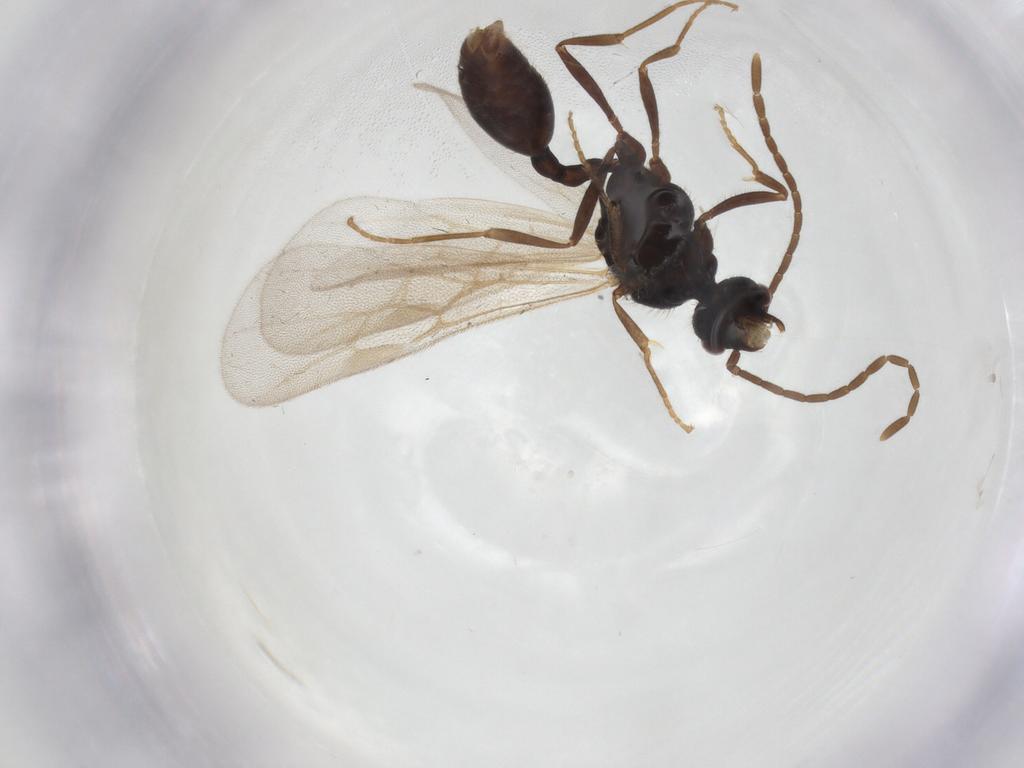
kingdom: Animalia
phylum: Arthropoda
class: Insecta
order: Hymenoptera
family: Formicidae
